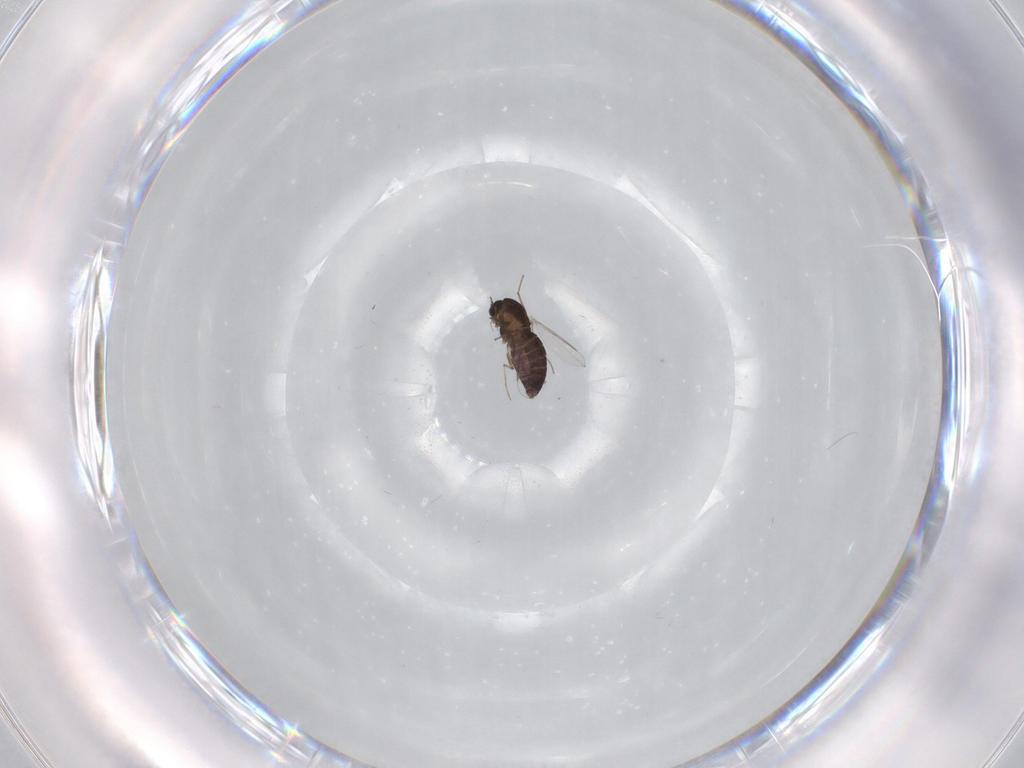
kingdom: Animalia
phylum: Arthropoda
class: Insecta
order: Diptera
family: Chironomidae
